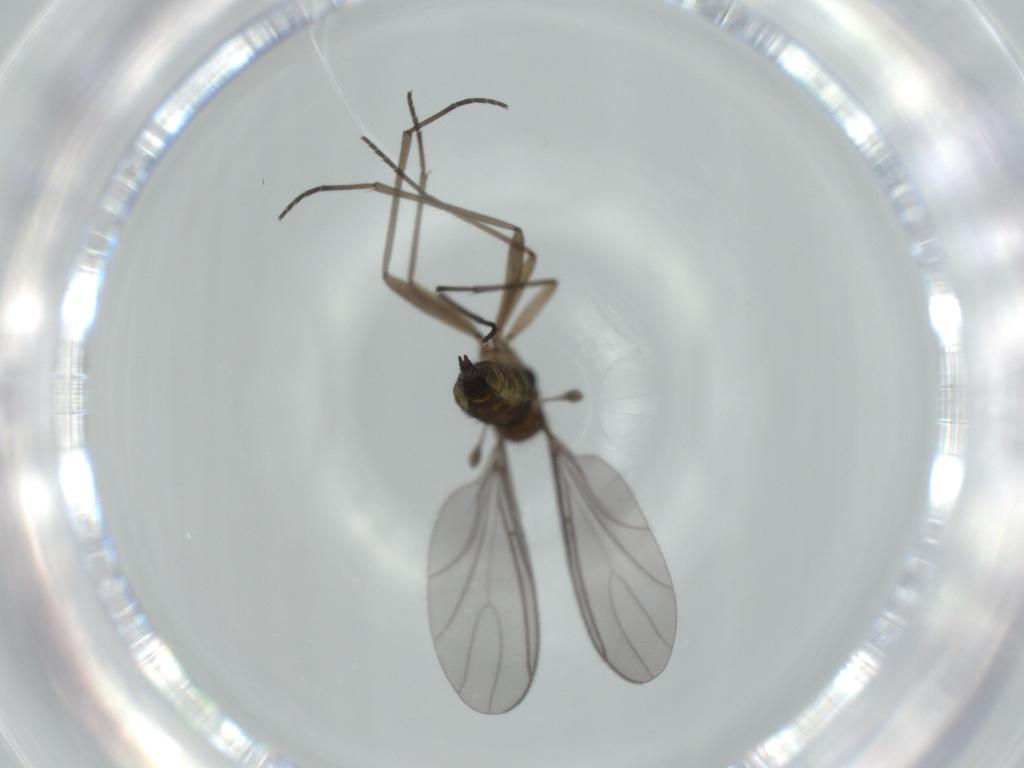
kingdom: Animalia
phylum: Arthropoda
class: Insecta
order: Diptera
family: Sciaridae
